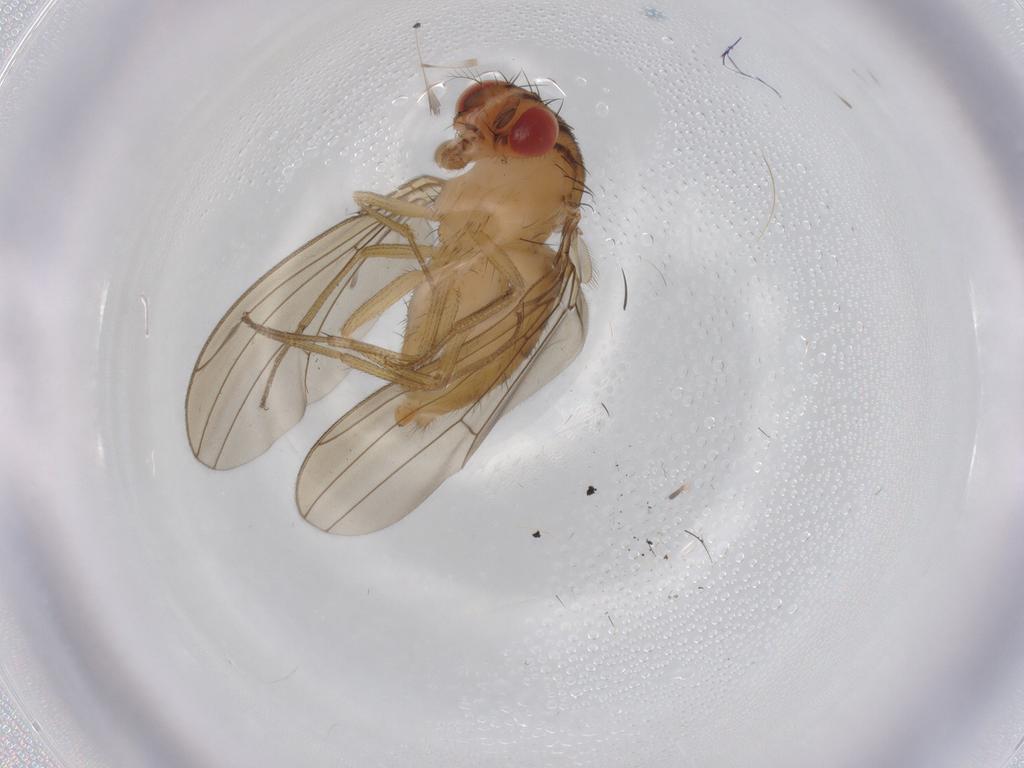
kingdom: Animalia
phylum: Arthropoda
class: Insecta
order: Diptera
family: Drosophilidae
